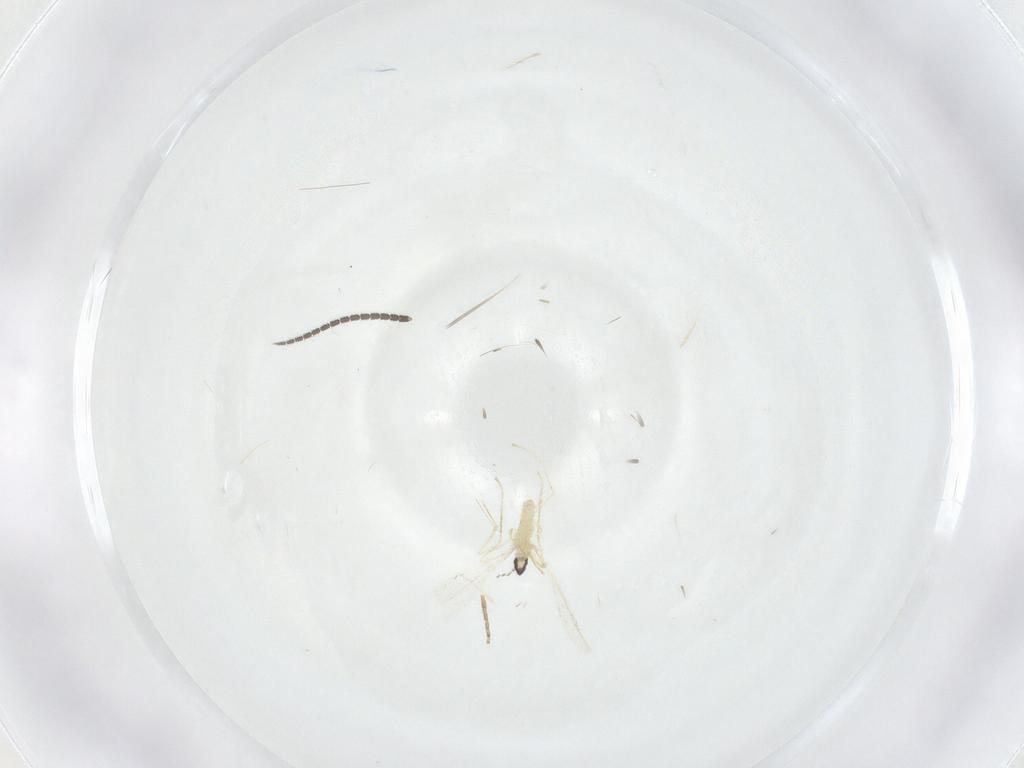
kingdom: Animalia
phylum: Arthropoda
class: Insecta
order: Diptera
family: Cecidomyiidae
